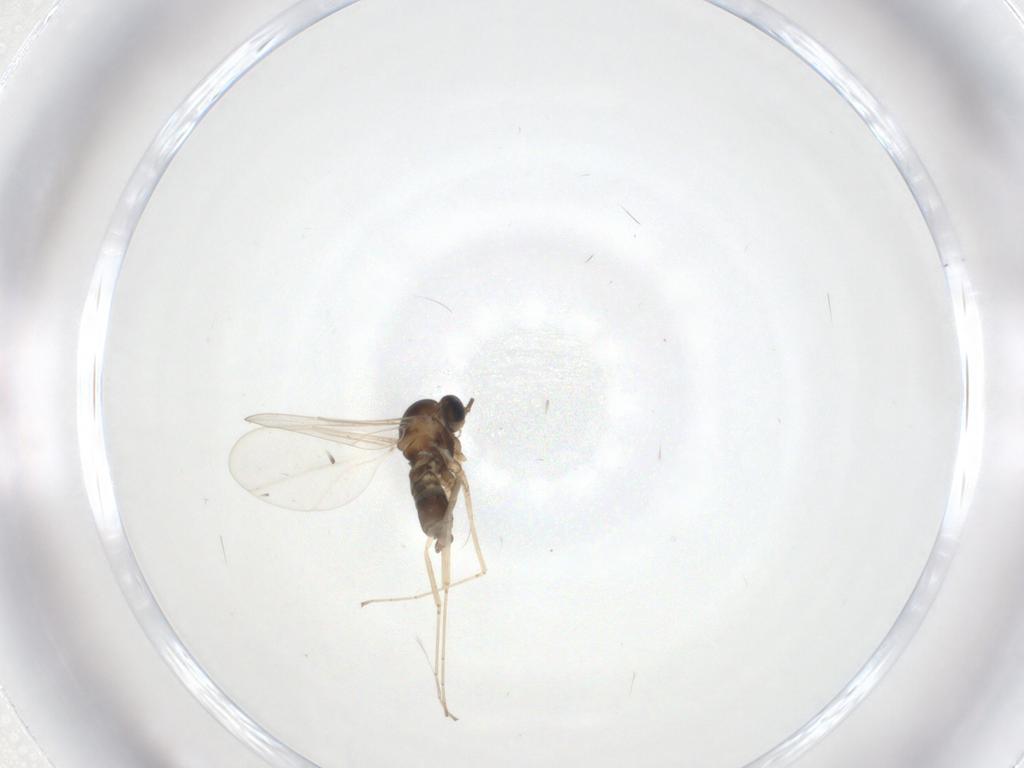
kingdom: Animalia
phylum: Arthropoda
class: Insecta
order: Diptera
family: Cecidomyiidae
